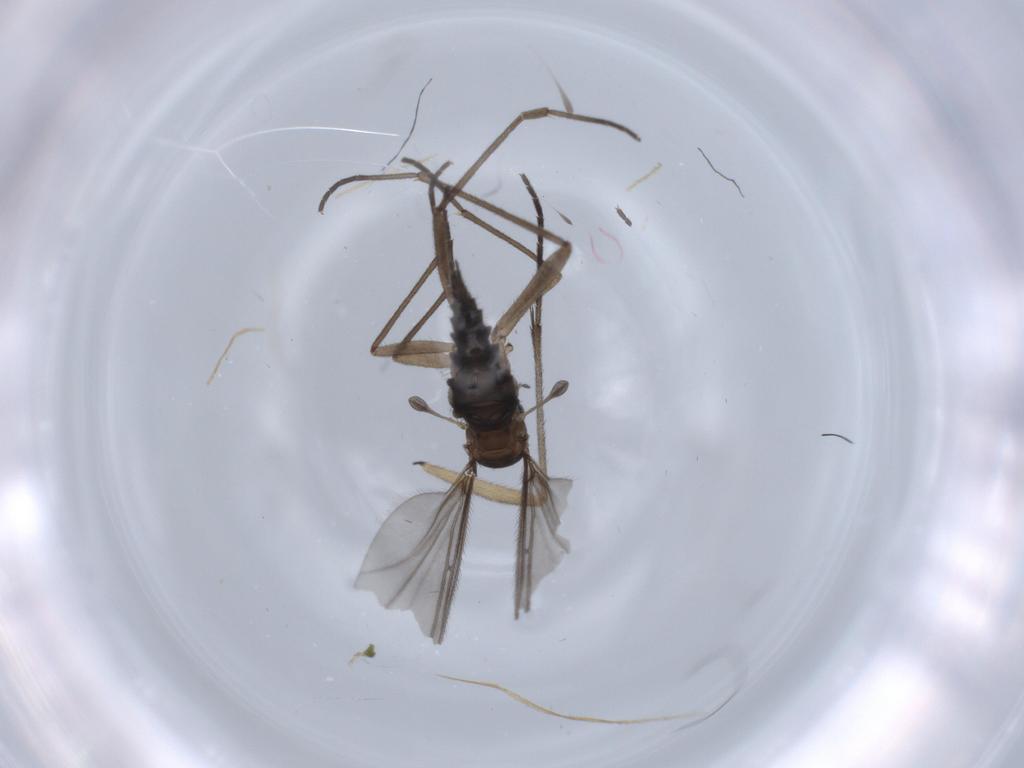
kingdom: Animalia
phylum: Arthropoda
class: Insecta
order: Diptera
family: Sciaridae
